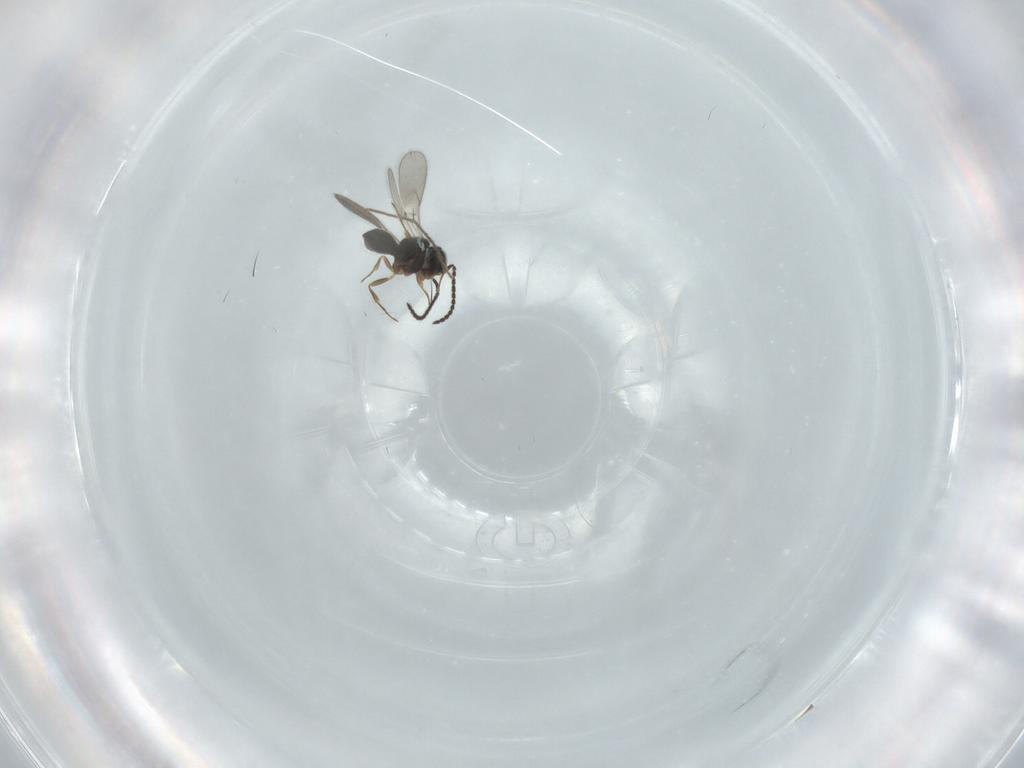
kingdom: Animalia
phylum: Arthropoda
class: Insecta
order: Hymenoptera
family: Scelionidae
